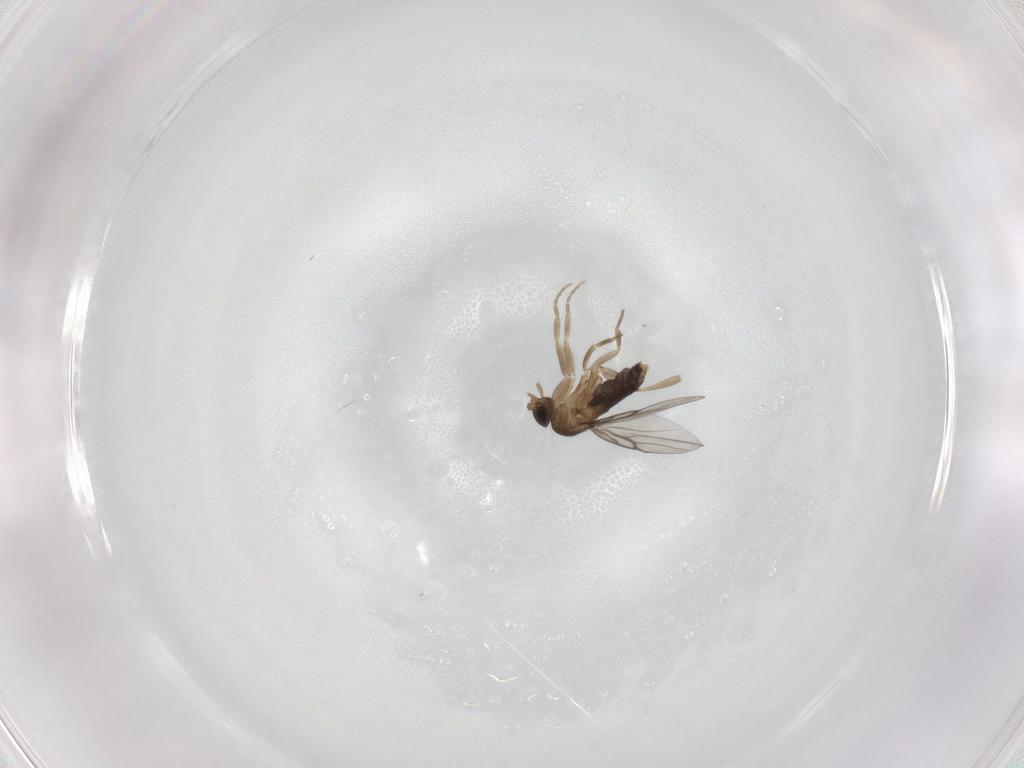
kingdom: Animalia
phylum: Arthropoda
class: Insecta
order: Diptera
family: Phoridae
